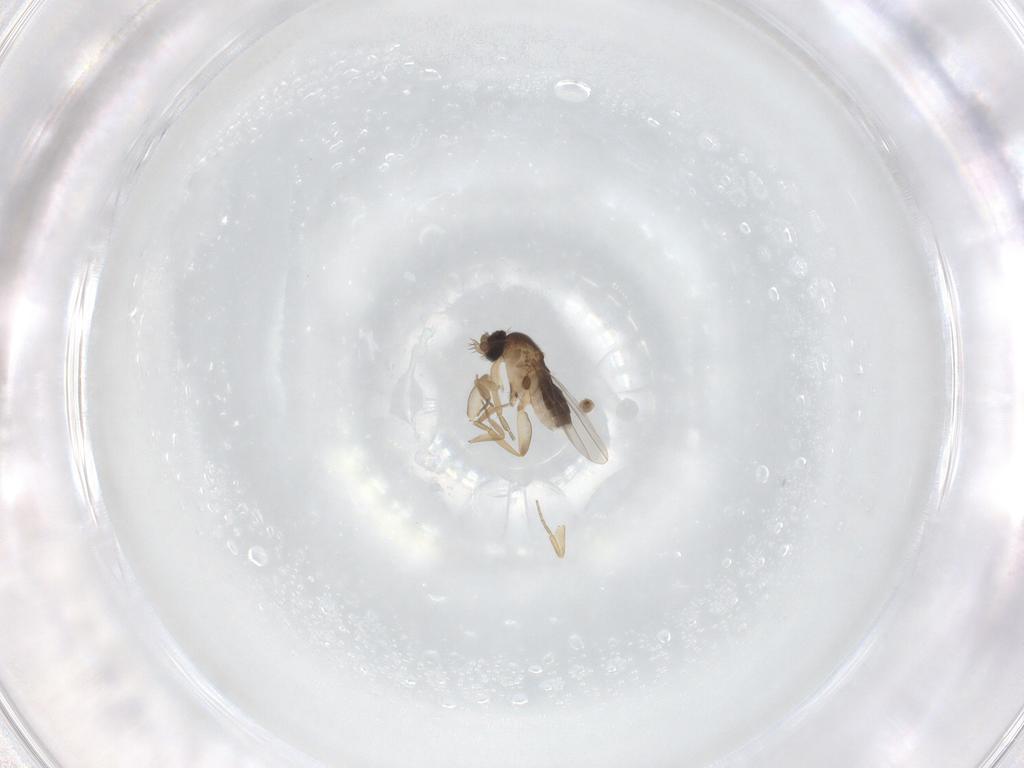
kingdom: Animalia
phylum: Arthropoda
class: Insecta
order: Diptera
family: Phoridae
